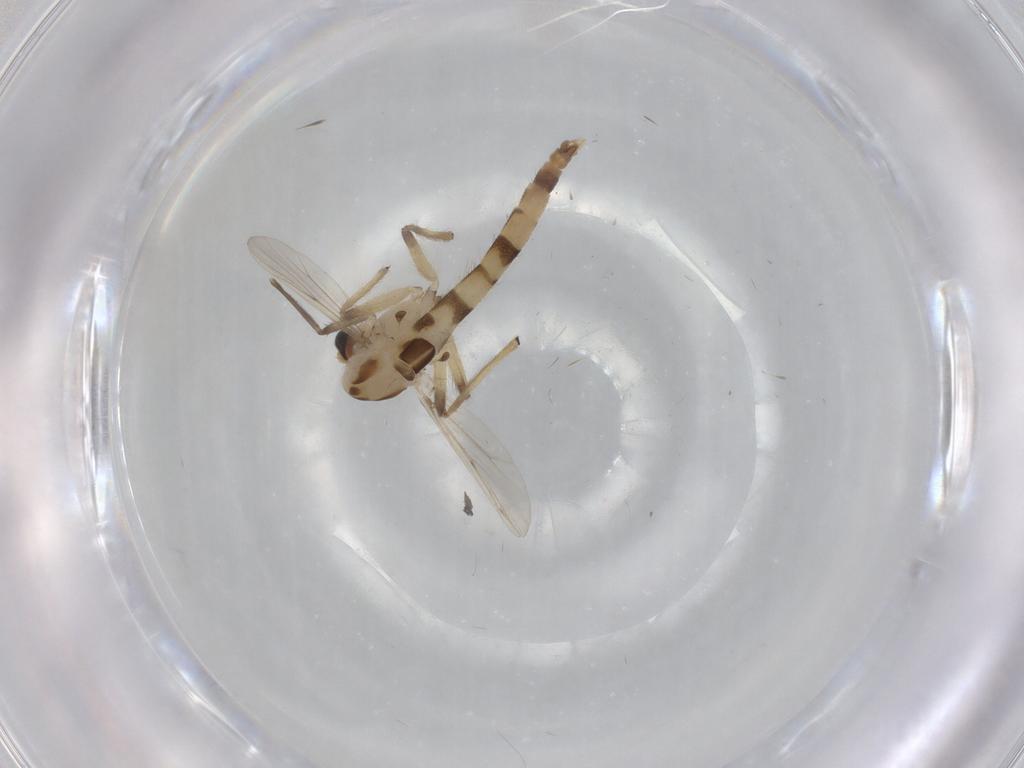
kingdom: Animalia
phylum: Arthropoda
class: Insecta
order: Diptera
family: Chironomidae
